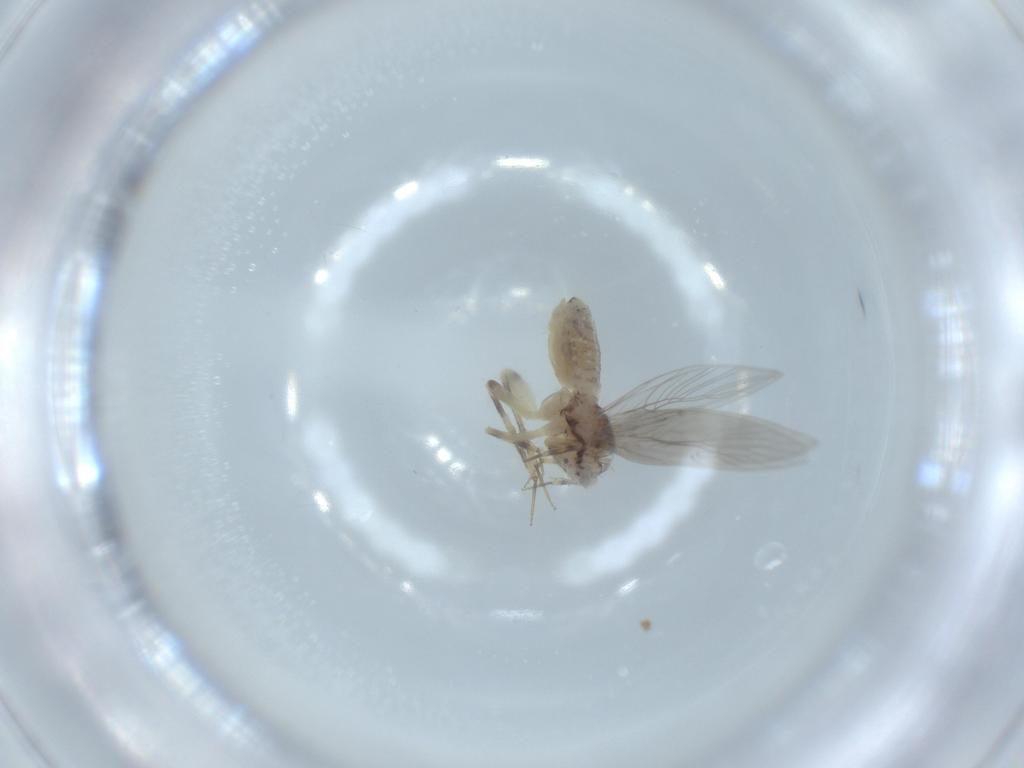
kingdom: Animalia
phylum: Arthropoda
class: Insecta
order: Psocodea
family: Lepidopsocidae
